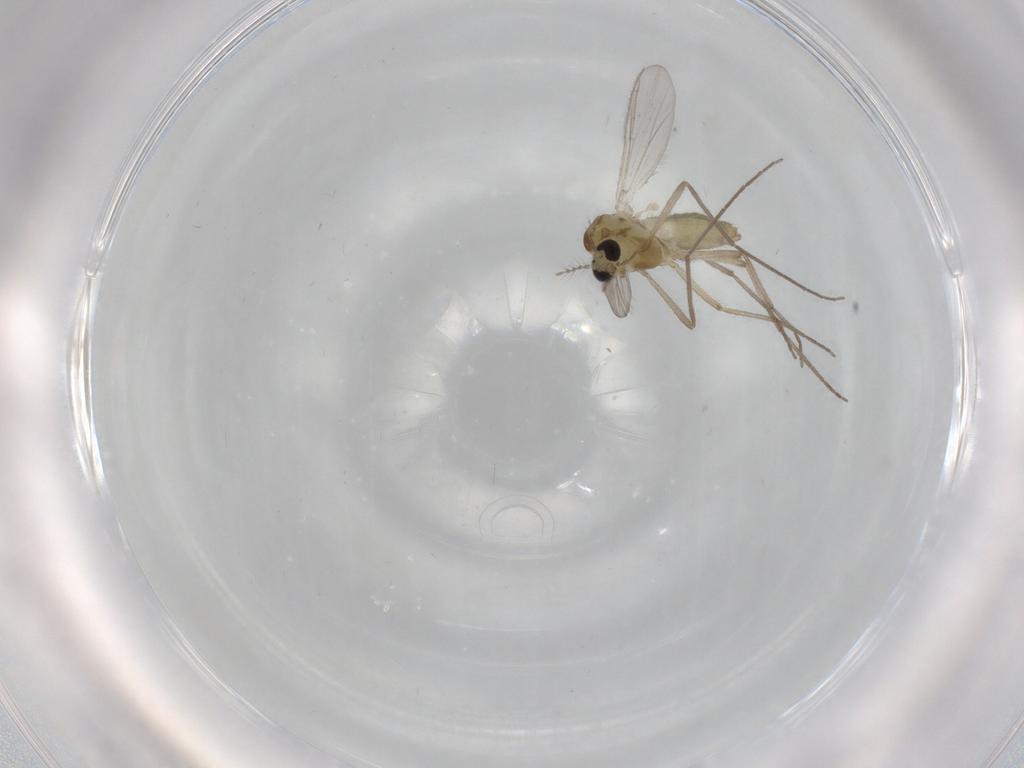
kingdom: Animalia
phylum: Arthropoda
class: Insecta
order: Diptera
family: Chironomidae
